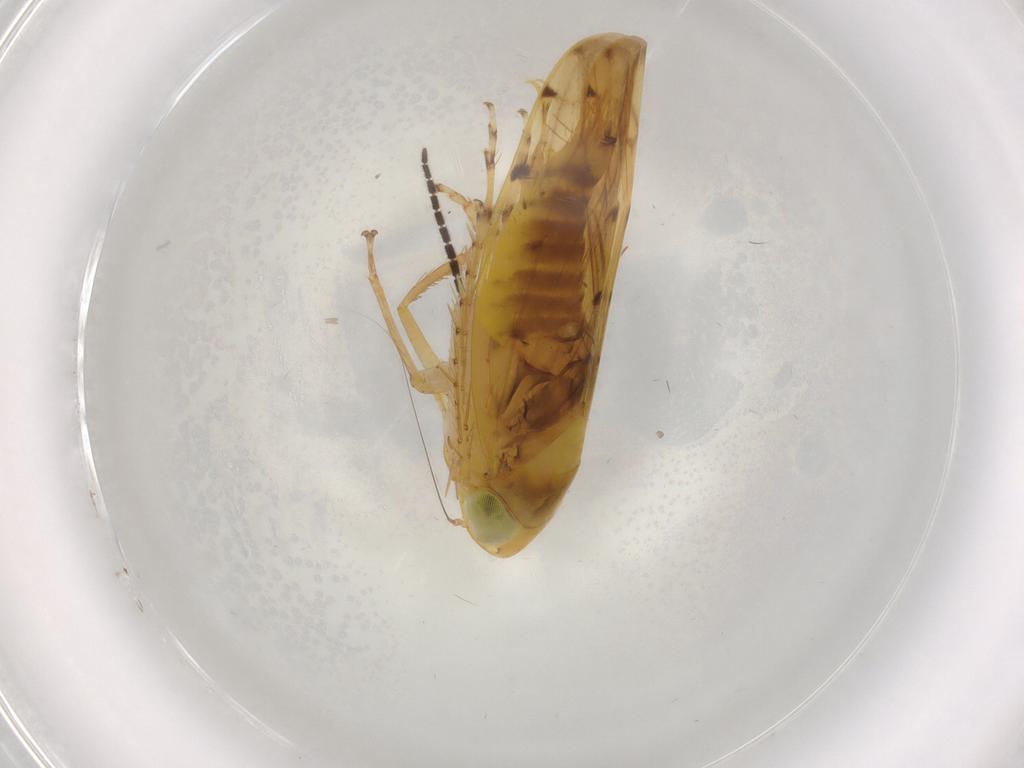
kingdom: Animalia
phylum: Arthropoda
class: Insecta
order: Hemiptera
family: Cicadellidae
